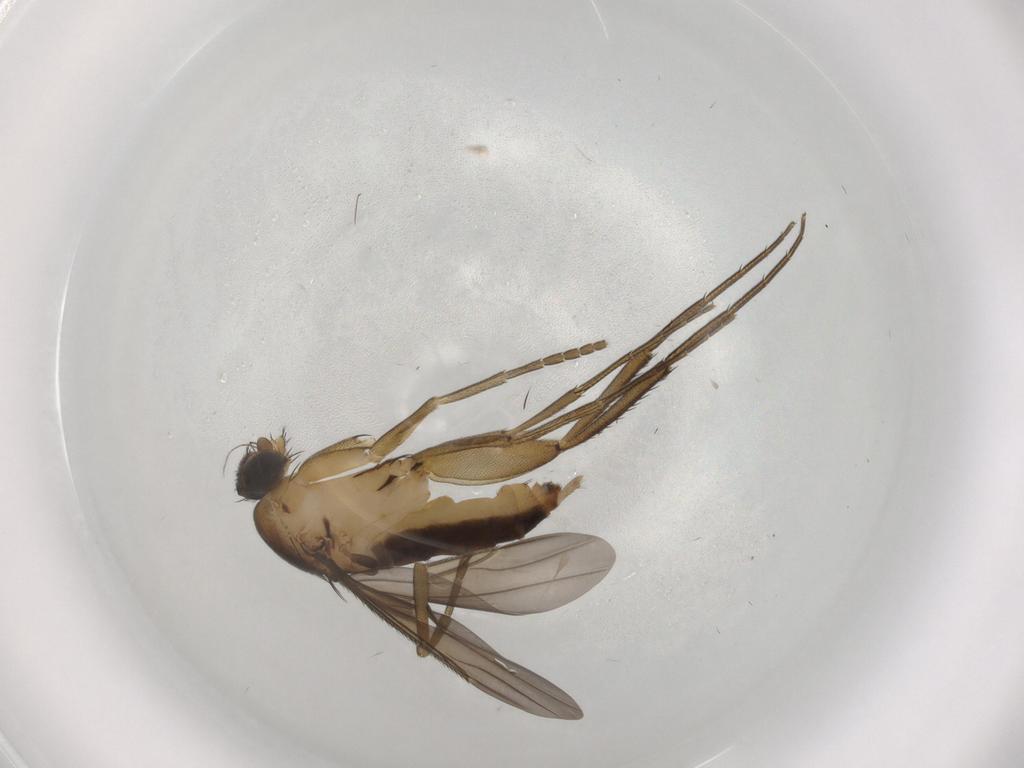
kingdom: Animalia
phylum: Arthropoda
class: Insecta
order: Diptera
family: Phoridae
